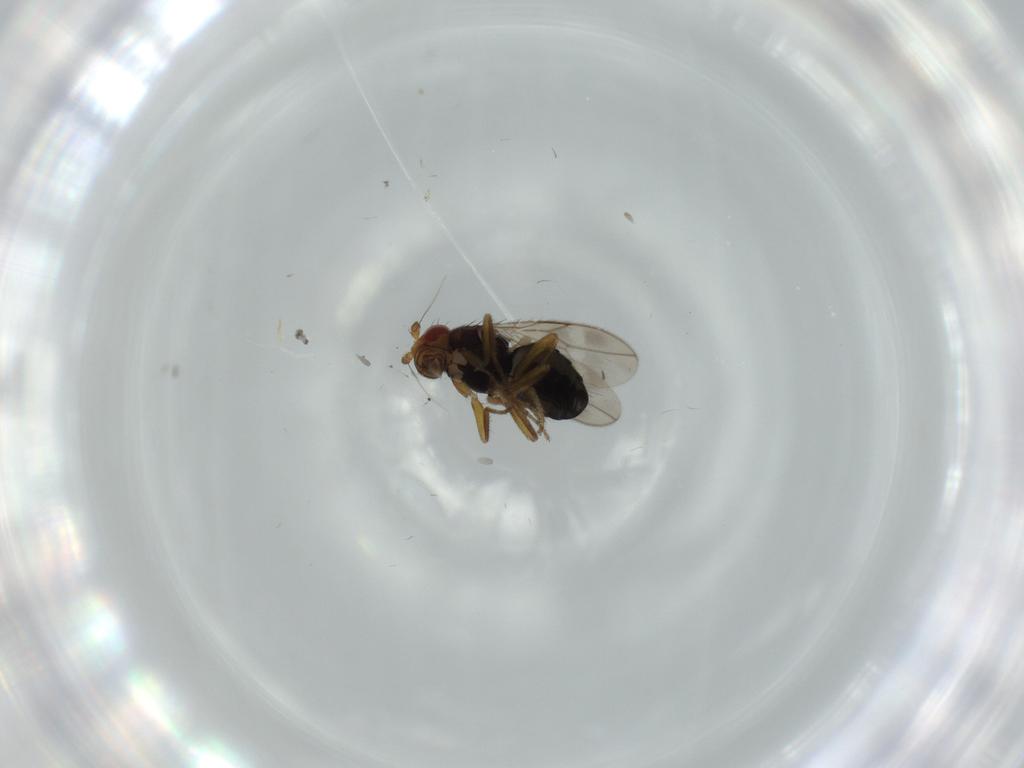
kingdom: Animalia
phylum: Arthropoda
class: Insecta
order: Diptera
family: Sphaeroceridae
